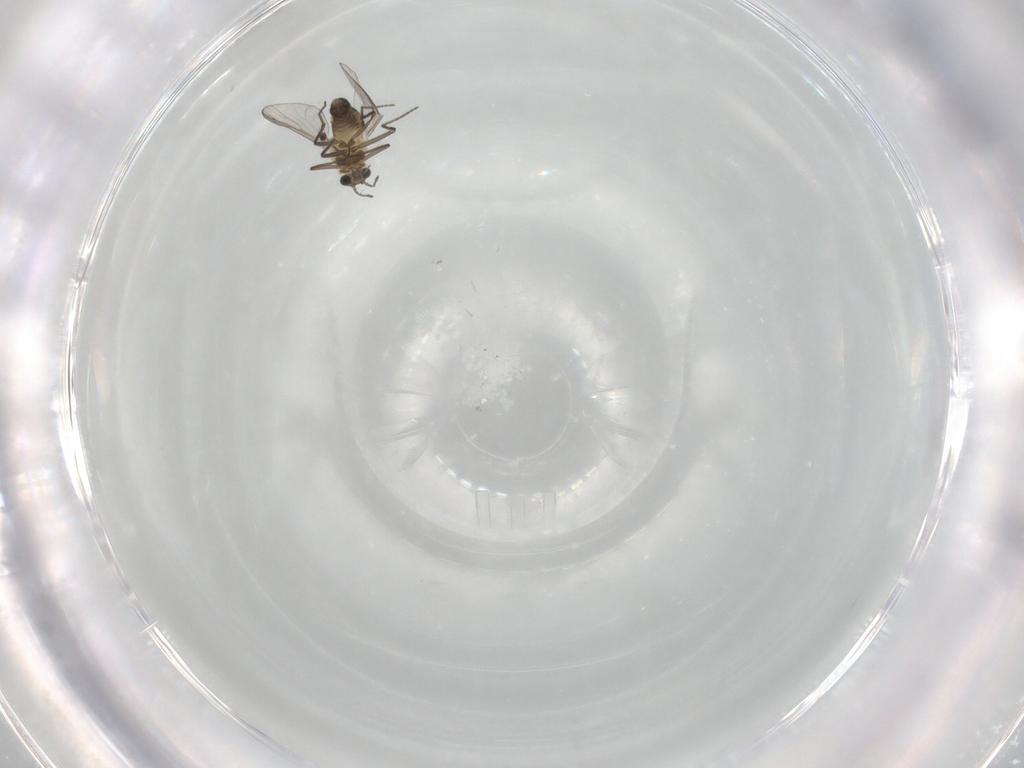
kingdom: Animalia
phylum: Arthropoda
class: Insecta
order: Diptera
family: Chironomidae
